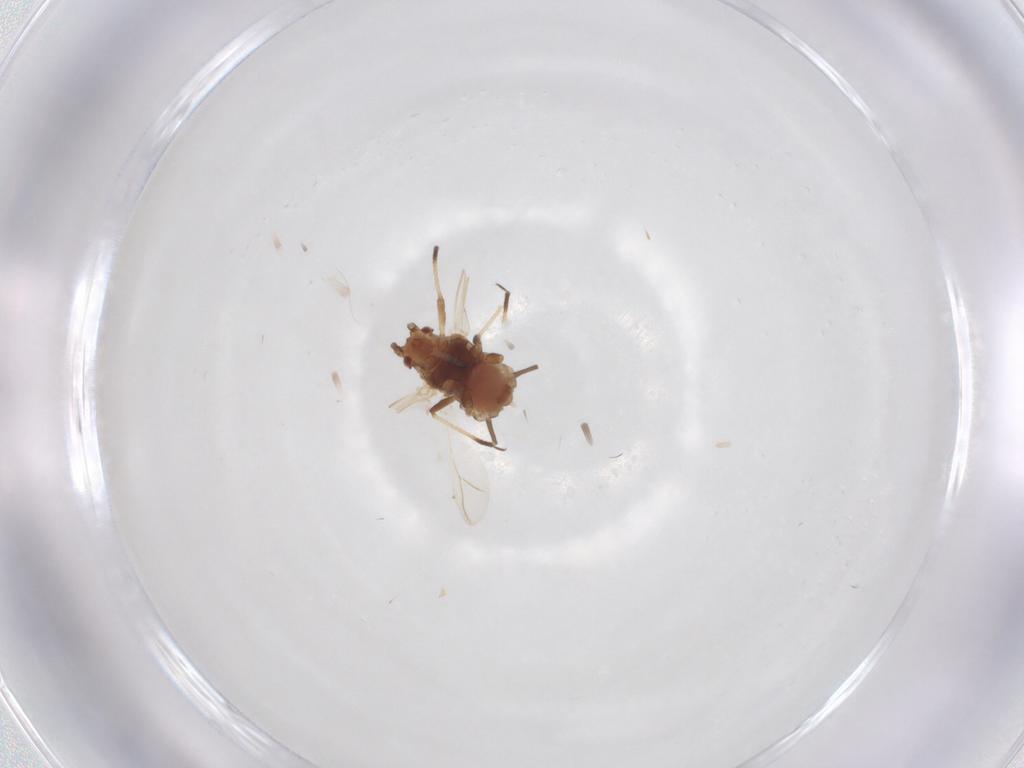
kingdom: Animalia
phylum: Arthropoda
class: Insecta
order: Hemiptera
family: Aphididae
